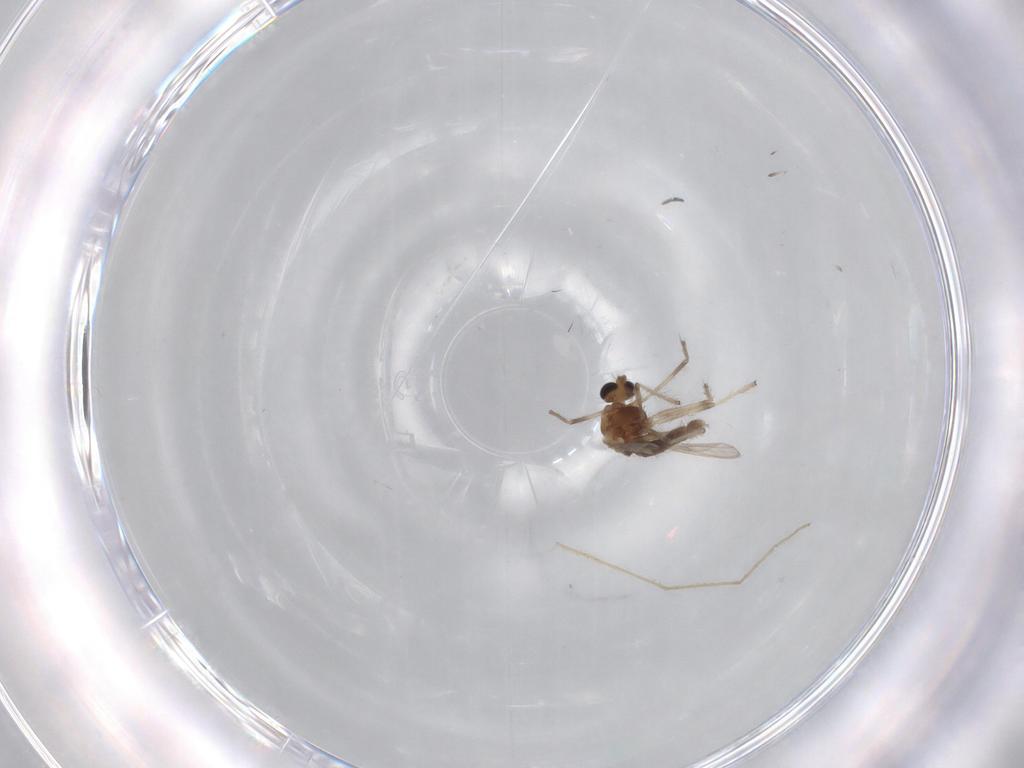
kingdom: Animalia
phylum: Arthropoda
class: Insecta
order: Diptera
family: Chironomidae
